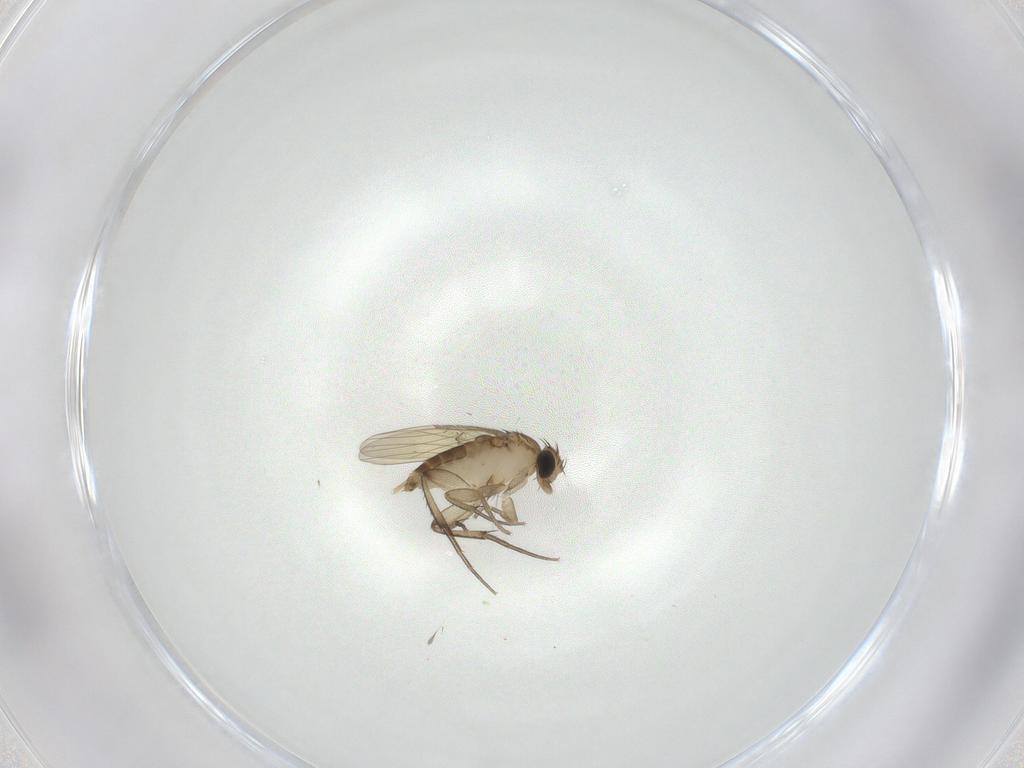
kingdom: Animalia
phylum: Arthropoda
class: Insecta
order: Diptera
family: Phoridae
